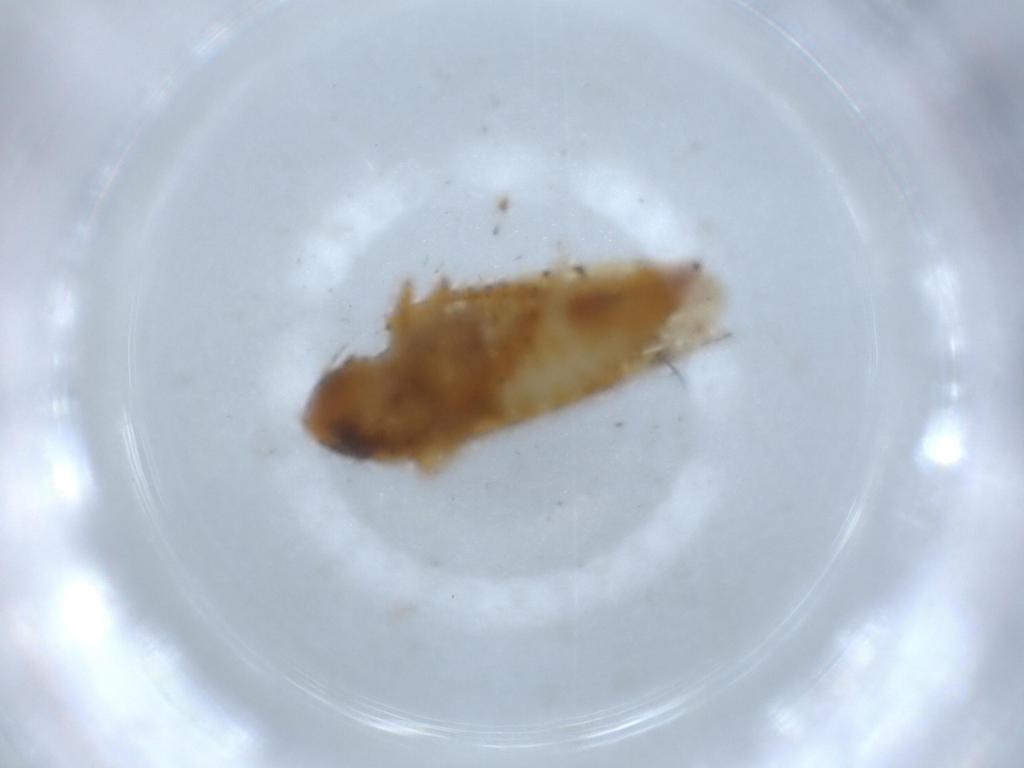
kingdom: Animalia
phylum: Arthropoda
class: Insecta
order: Hemiptera
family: Cicadellidae
